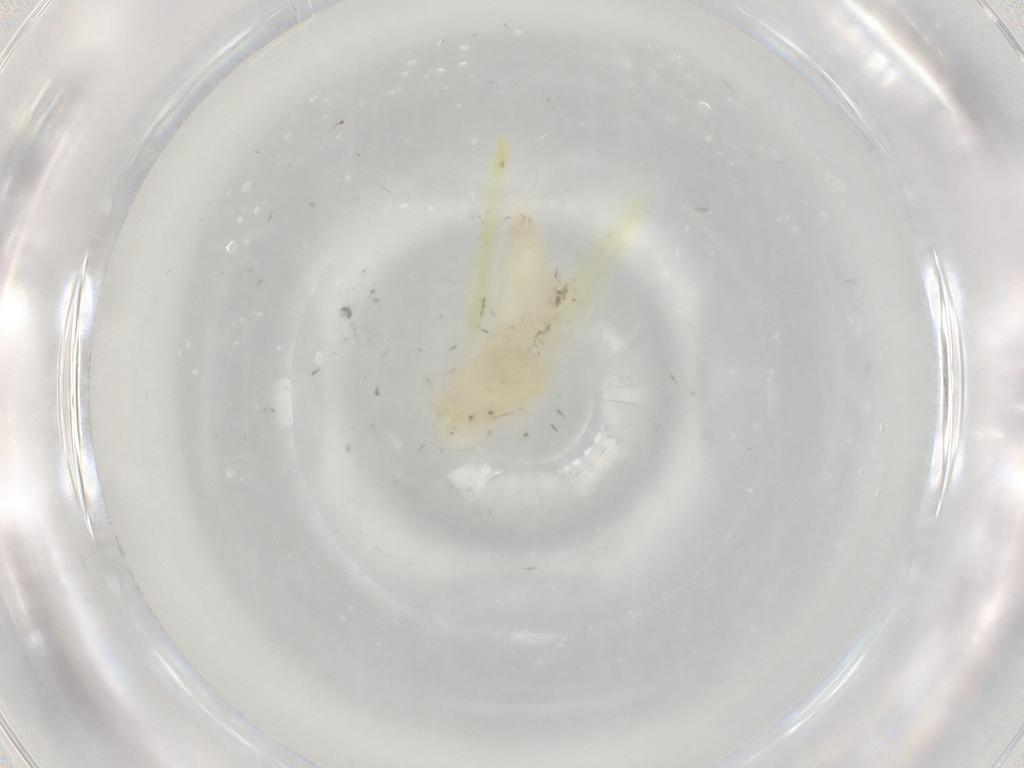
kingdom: Animalia
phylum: Arthropoda
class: Insecta
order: Hemiptera
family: Cicadellidae
